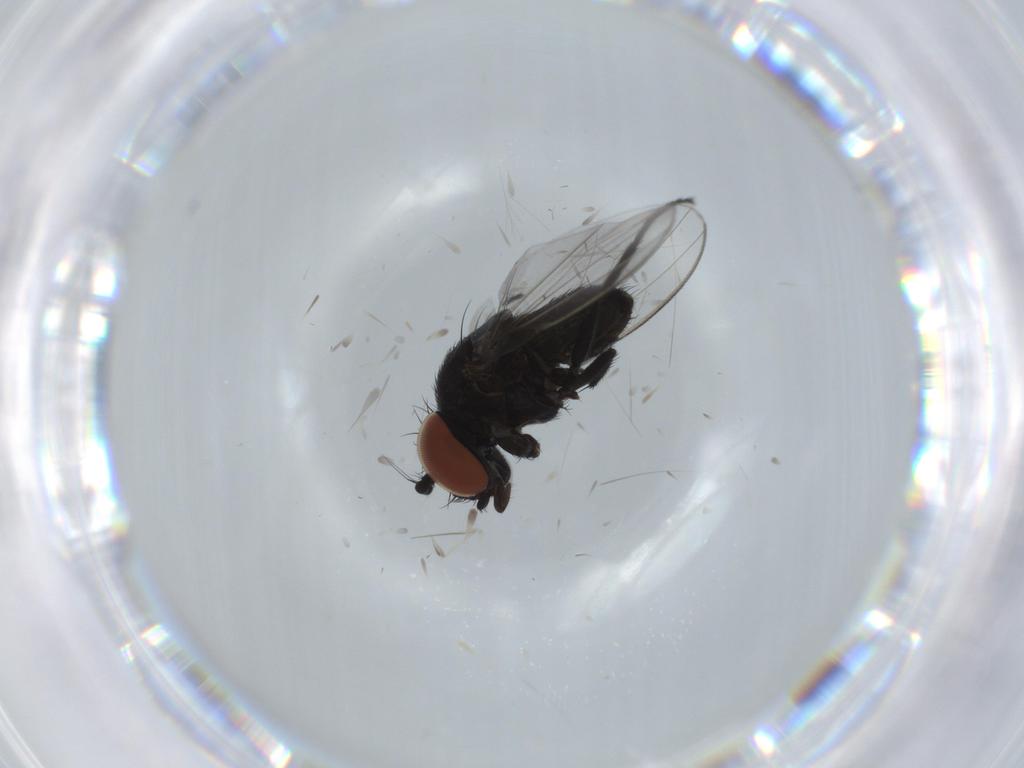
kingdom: Animalia
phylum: Arthropoda
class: Insecta
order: Diptera
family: Milichiidae
